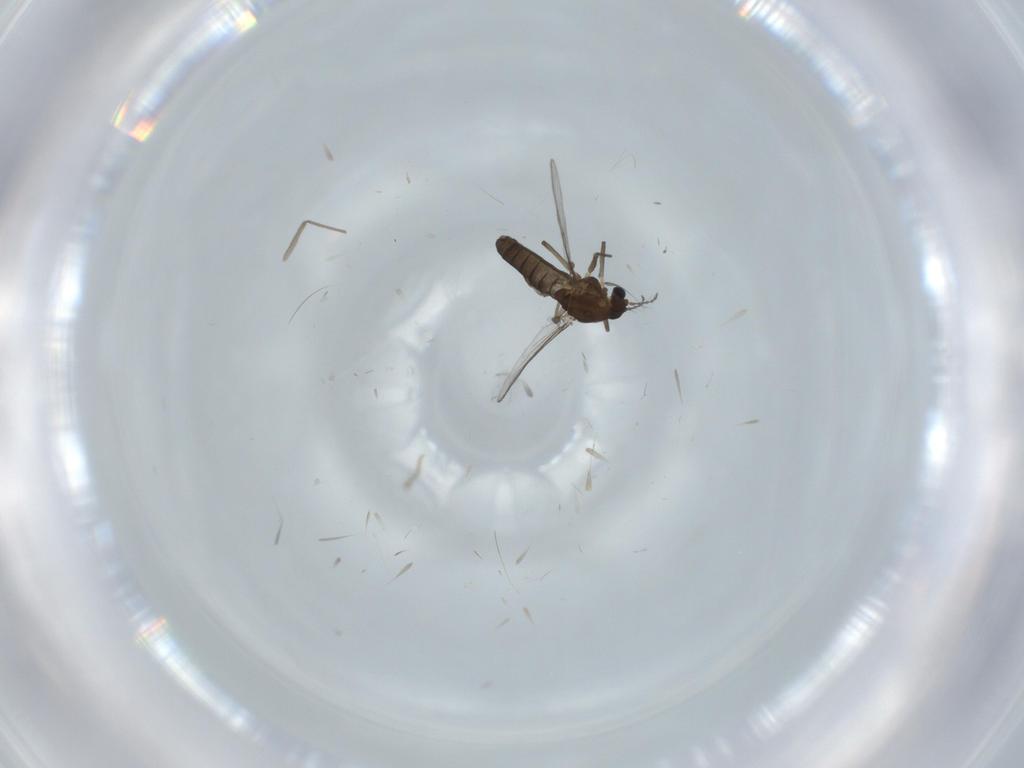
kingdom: Animalia
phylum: Arthropoda
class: Insecta
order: Diptera
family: Chironomidae
